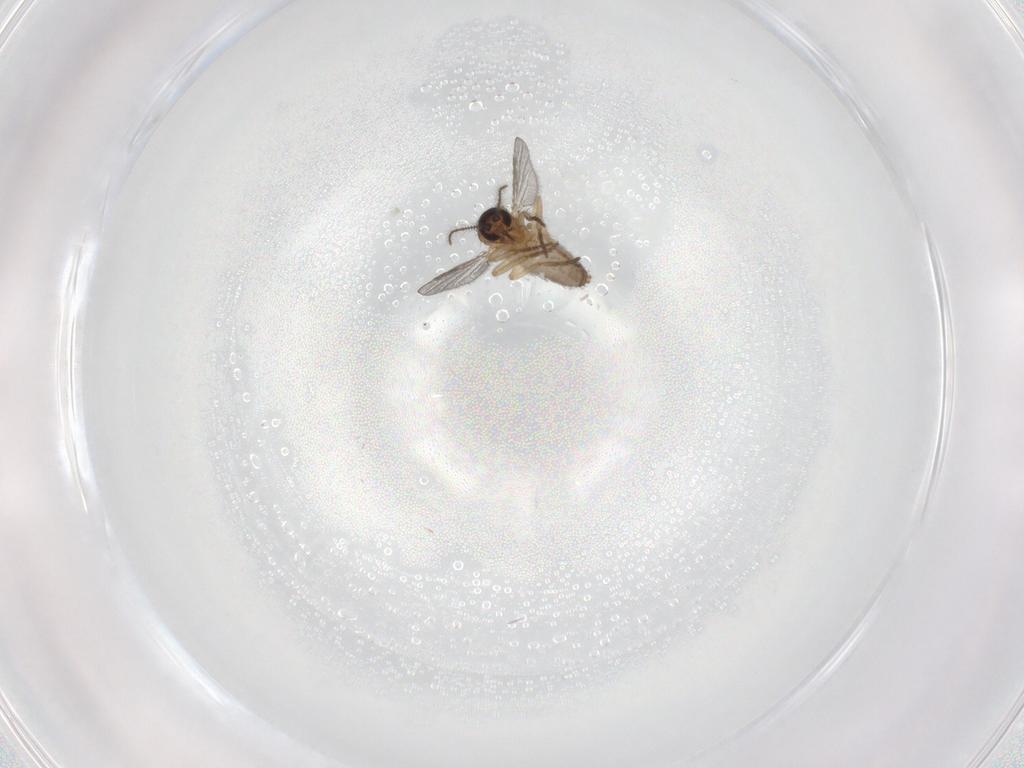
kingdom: Animalia
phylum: Arthropoda
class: Insecta
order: Diptera
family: Ceratopogonidae
